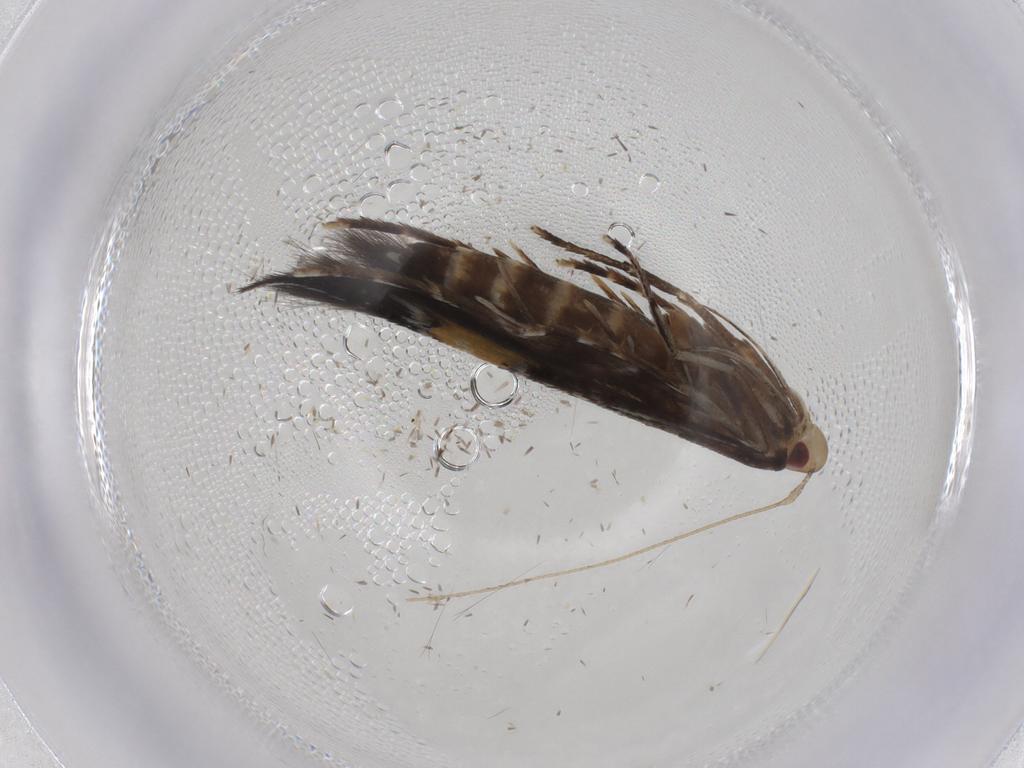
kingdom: Animalia
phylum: Arthropoda
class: Insecta
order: Lepidoptera
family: Cosmopterigidae
